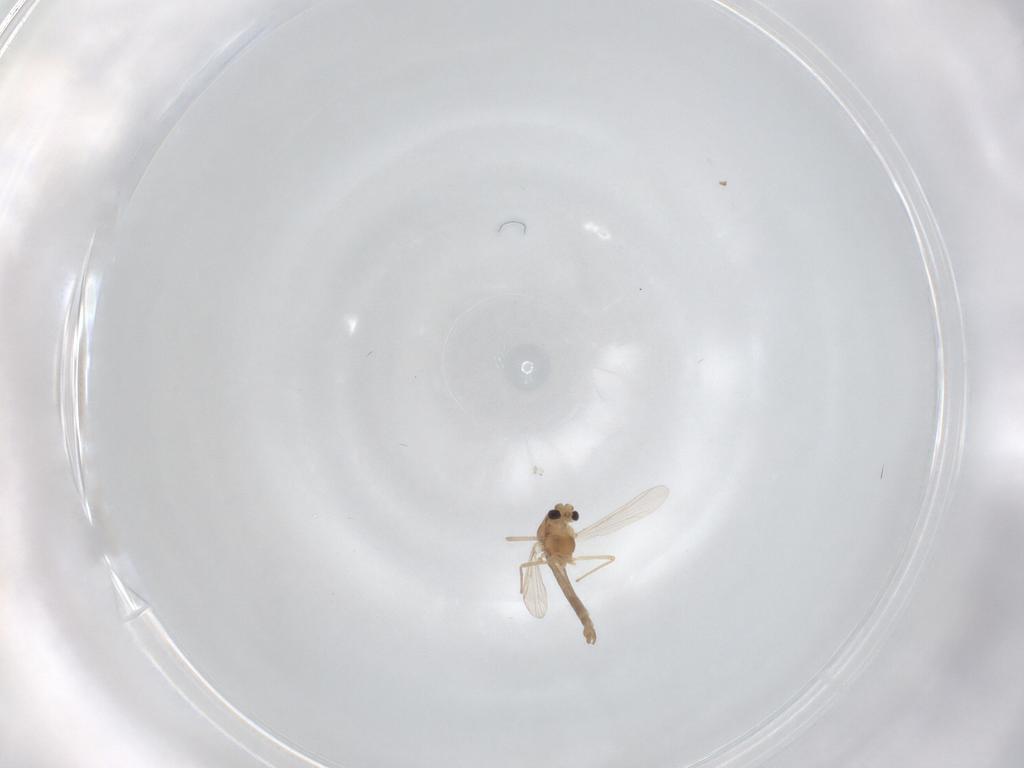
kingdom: Animalia
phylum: Arthropoda
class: Insecta
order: Diptera
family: Chironomidae
